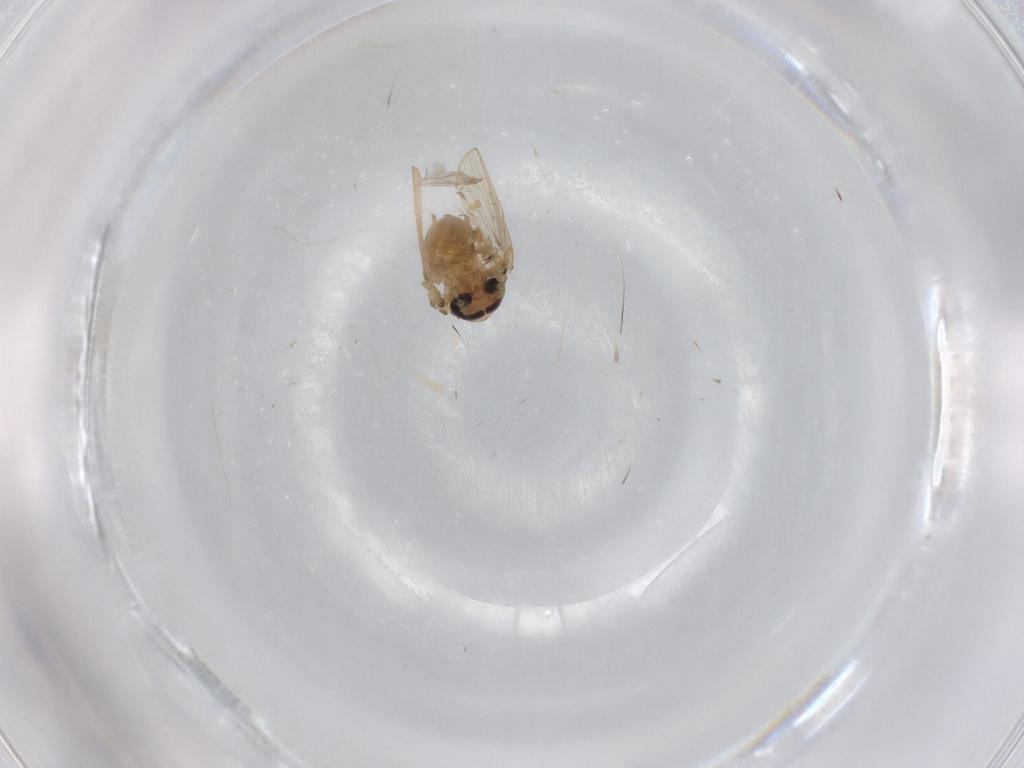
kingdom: Animalia
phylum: Arthropoda
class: Insecta
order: Diptera
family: Psychodidae
